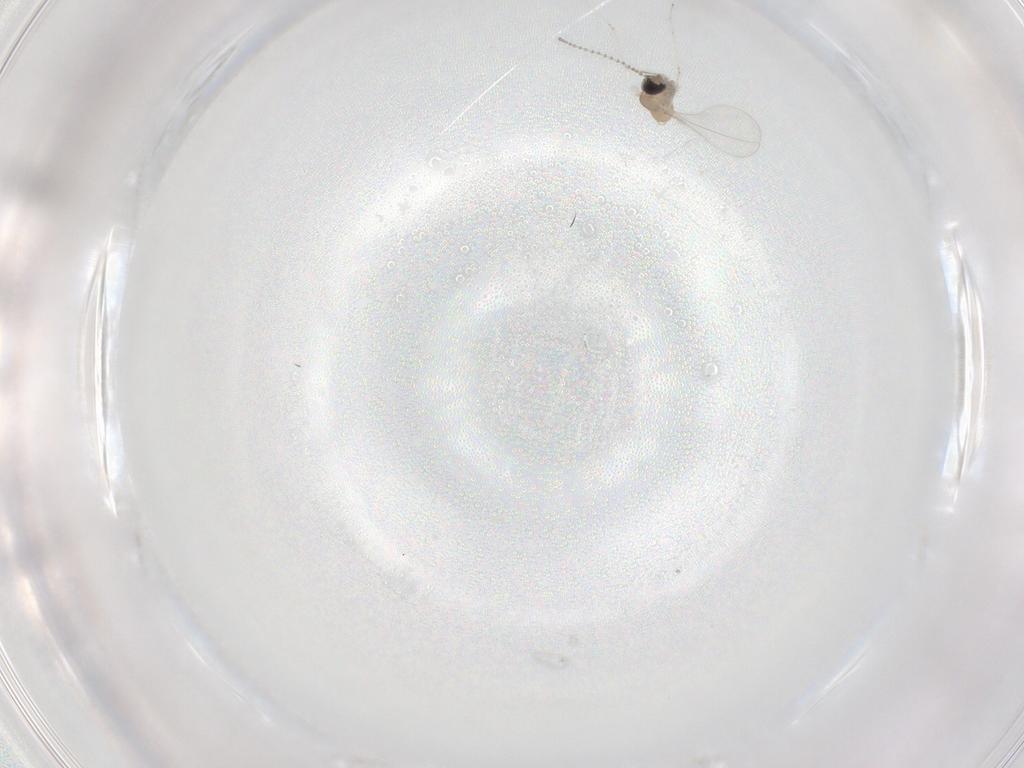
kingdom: Animalia
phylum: Arthropoda
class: Insecta
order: Diptera
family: Cecidomyiidae
